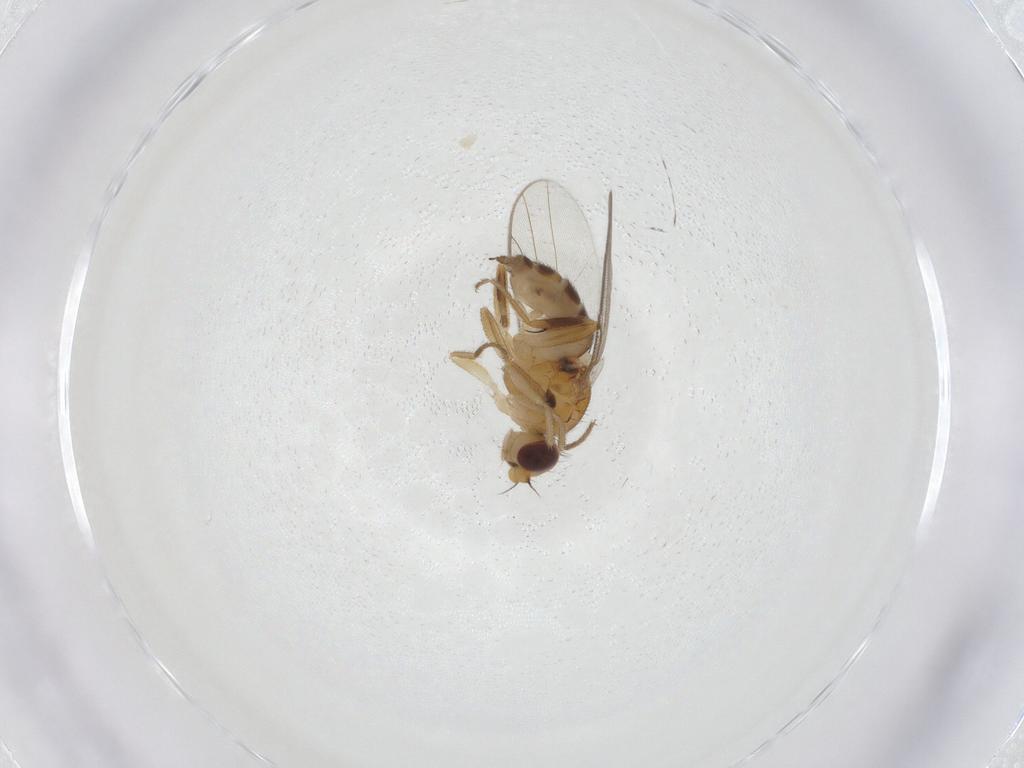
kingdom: Animalia
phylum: Arthropoda
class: Insecta
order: Diptera
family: Chloropidae
